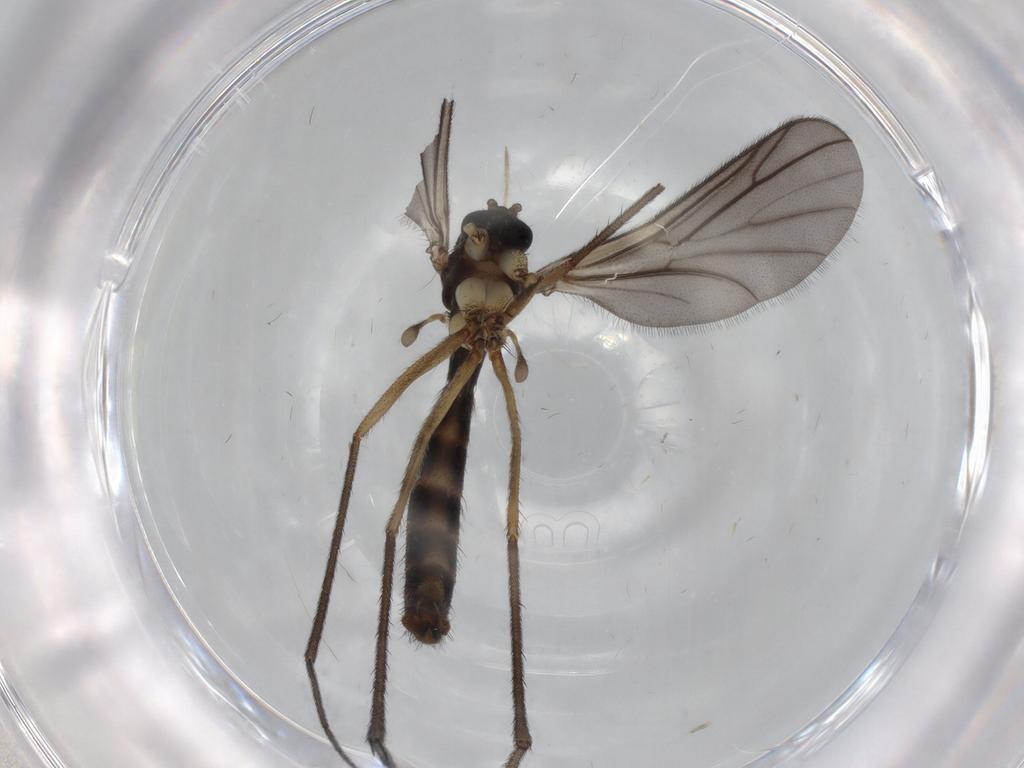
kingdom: Animalia
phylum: Arthropoda
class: Insecta
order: Diptera
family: Ditomyiidae
